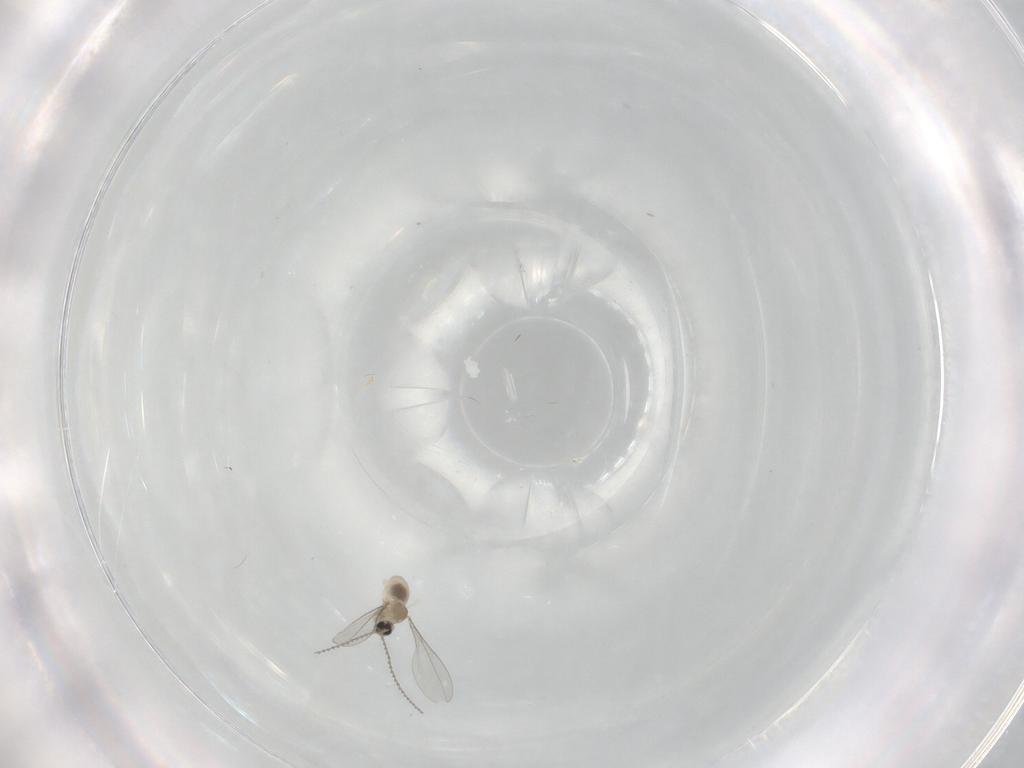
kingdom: Animalia
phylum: Arthropoda
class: Insecta
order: Diptera
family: Cecidomyiidae
